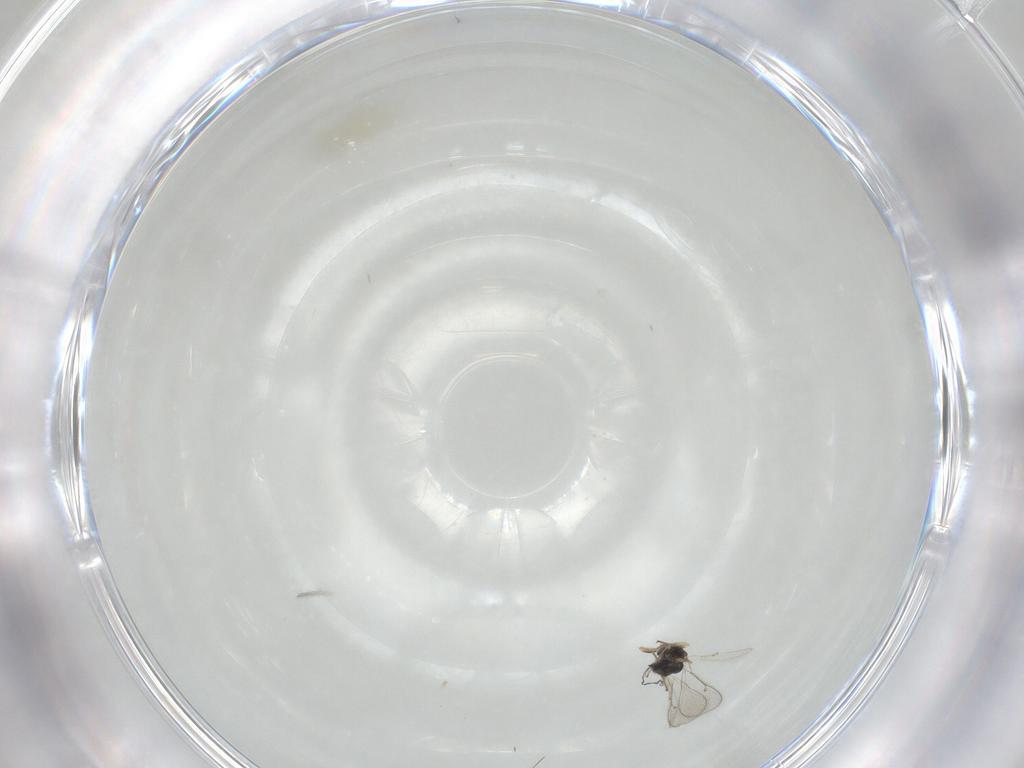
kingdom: Animalia
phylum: Arthropoda
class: Insecta
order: Hymenoptera
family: Eulophidae
